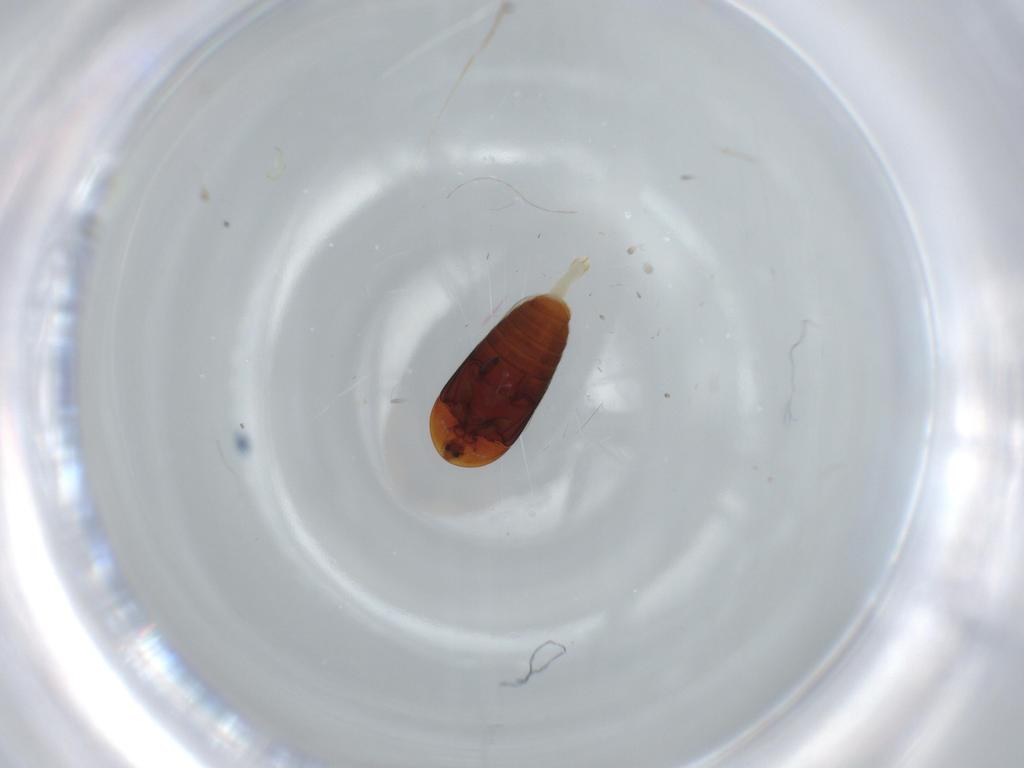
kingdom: Animalia
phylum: Arthropoda
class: Insecta
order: Coleoptera
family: Corylophidae
